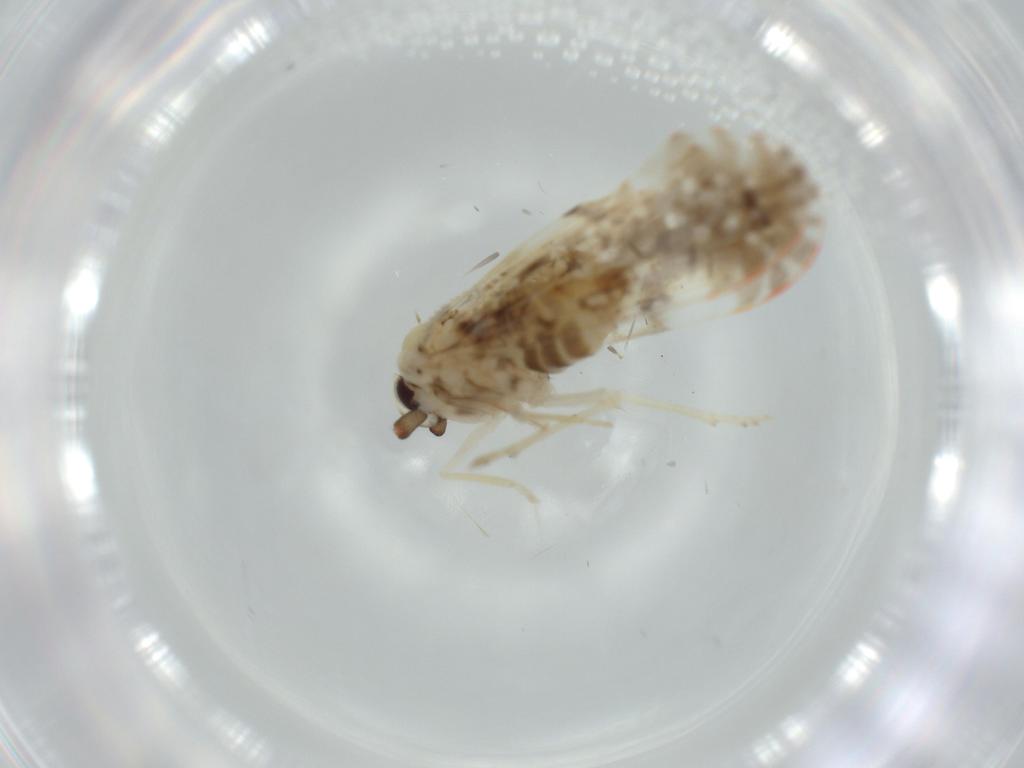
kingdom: Animalia
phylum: Arthropoda
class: Insecta
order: Hemiptera
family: Derbidae
